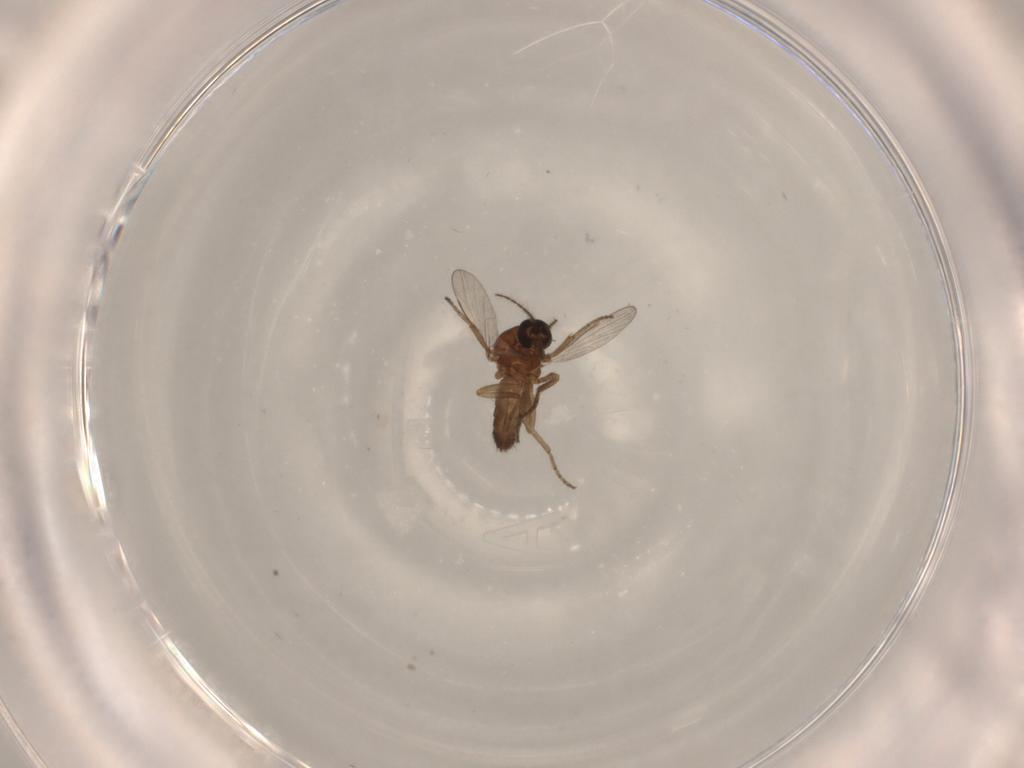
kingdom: Animalia
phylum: Arthropoda
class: Insecta
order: Diptera
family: Ceratopogonidae
